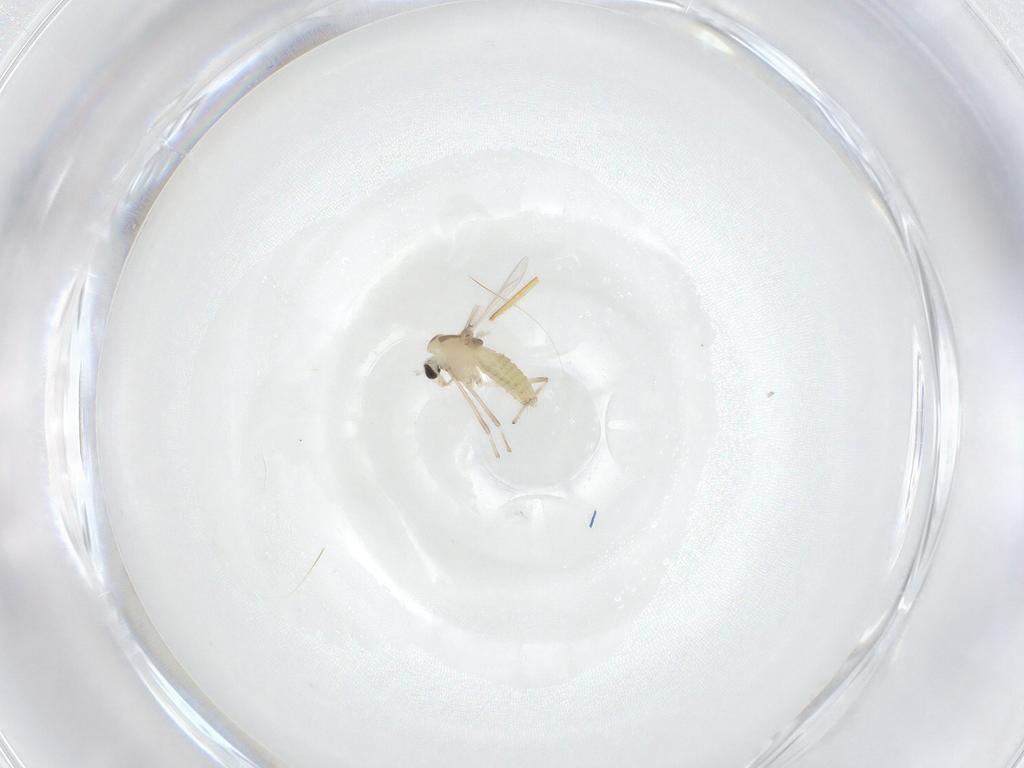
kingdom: Animalia
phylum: Arthropoda
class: Insecta
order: Diptera
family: Chironomidae
